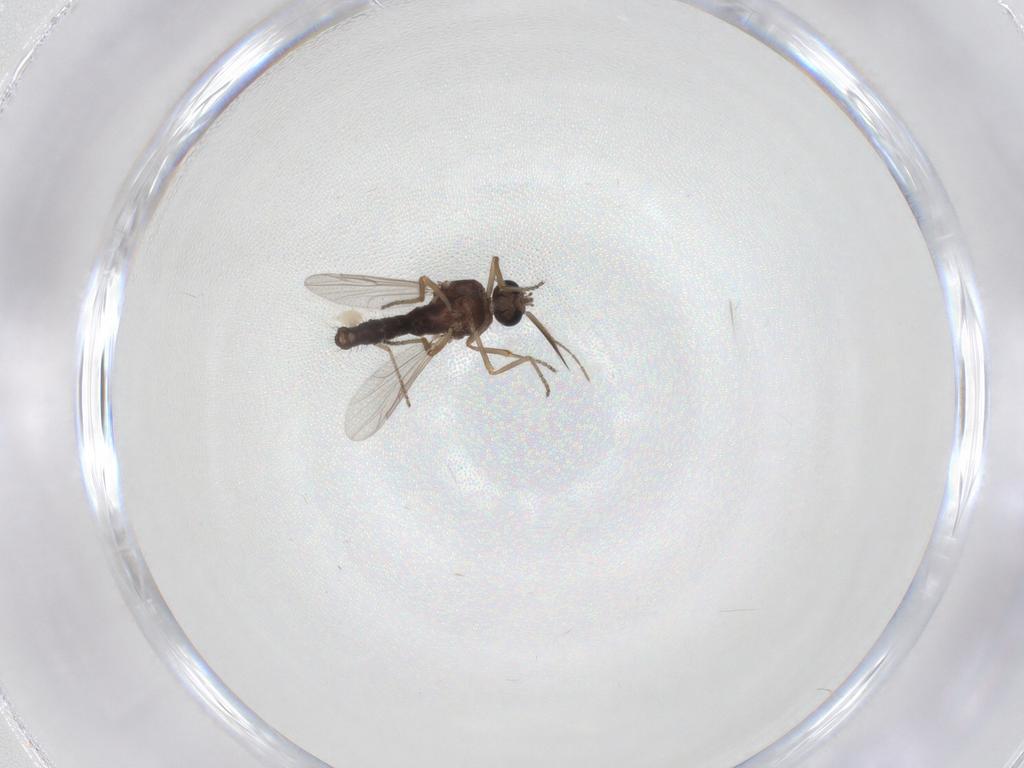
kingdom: Animalia
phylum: Arthropoda
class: Insecta
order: Diptera
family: Ceratopogonidae
